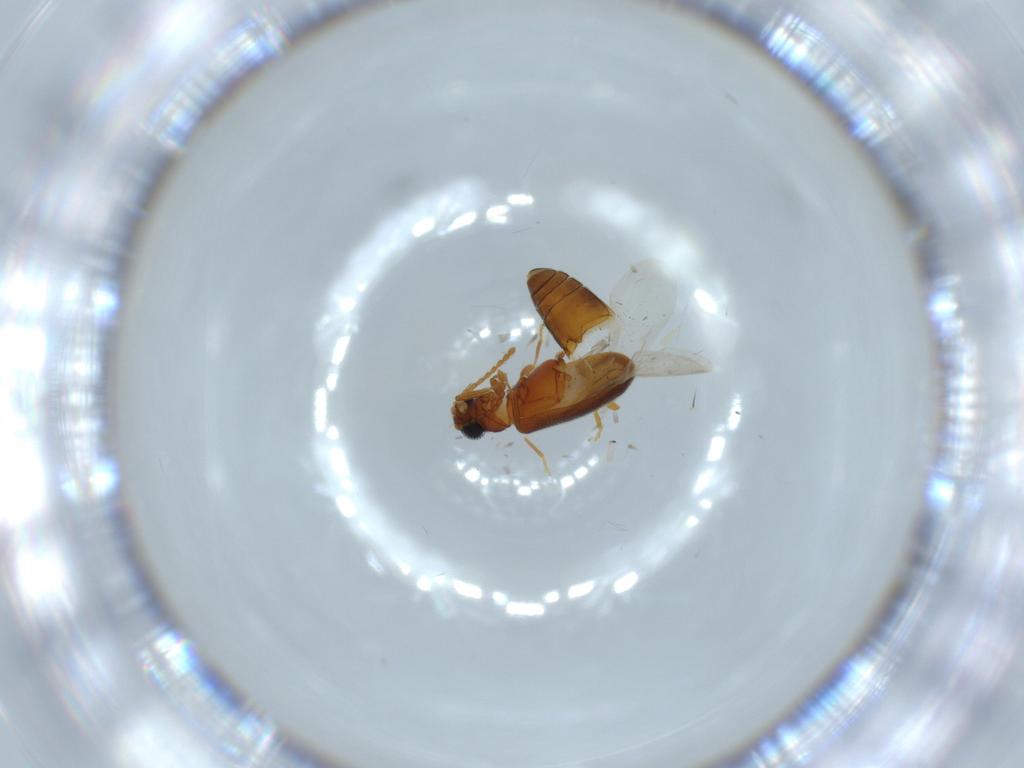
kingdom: Animalia
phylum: Arthropoda
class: Insecta
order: Coleoptera
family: Aderidae
